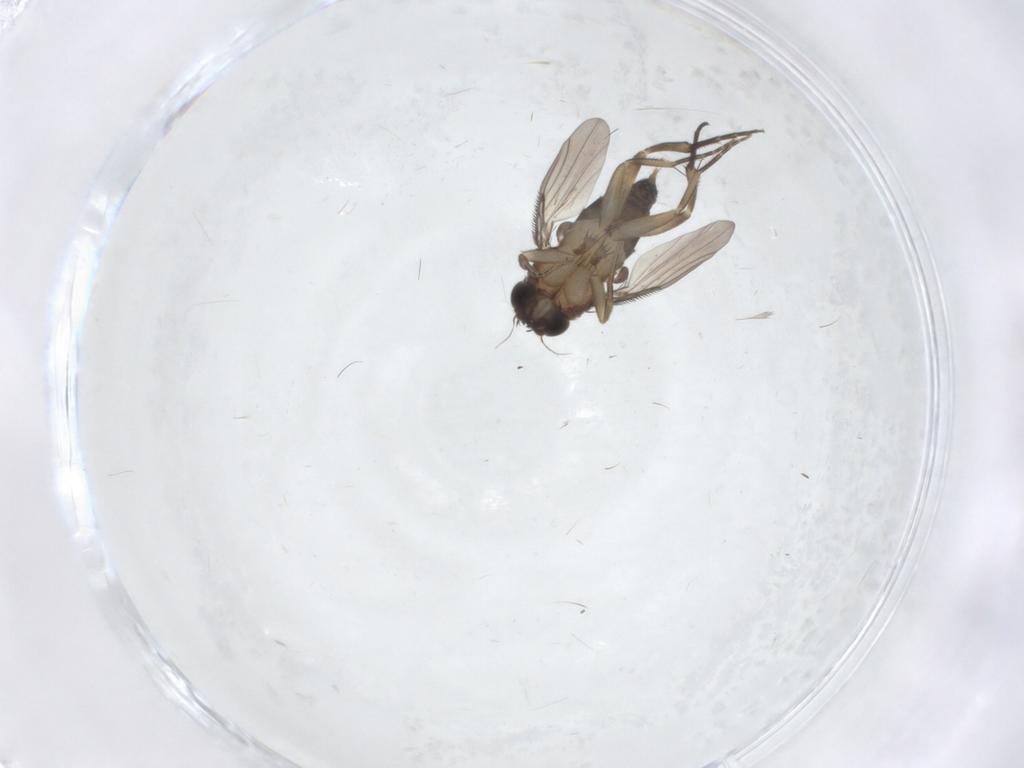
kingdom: Animalia
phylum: Arthropoda
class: Insecta
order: Diptera
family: Phoridae
